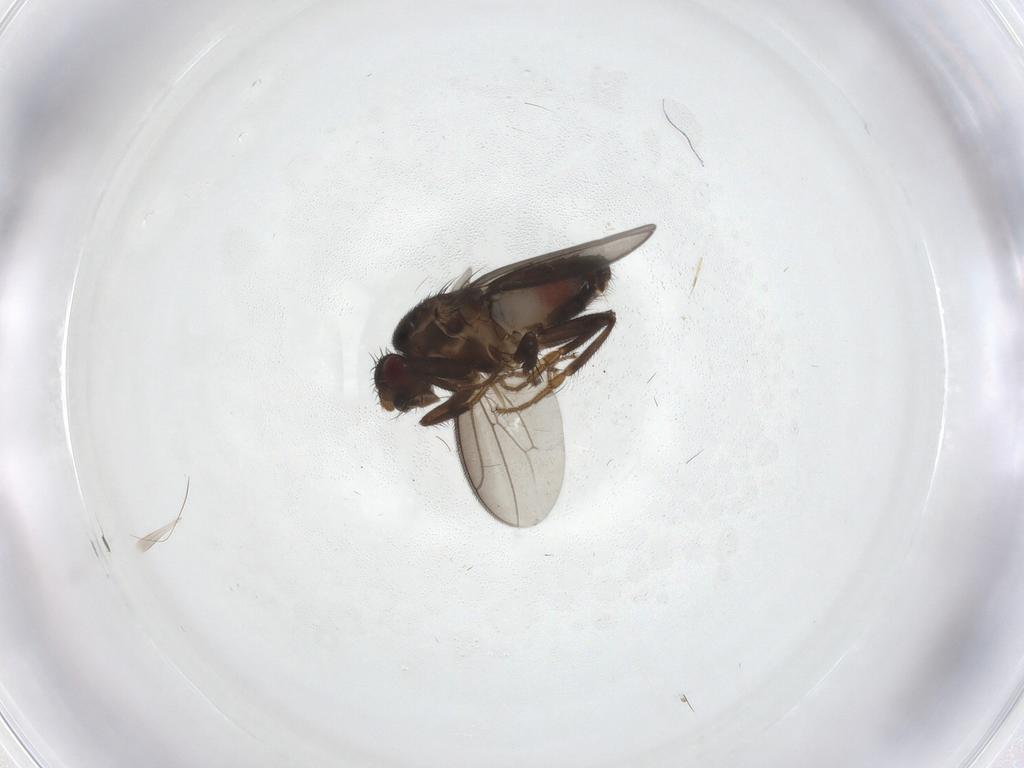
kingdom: Animalia
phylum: Arthropoda
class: Insecta
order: Diptera
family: Sphaeroceridae
